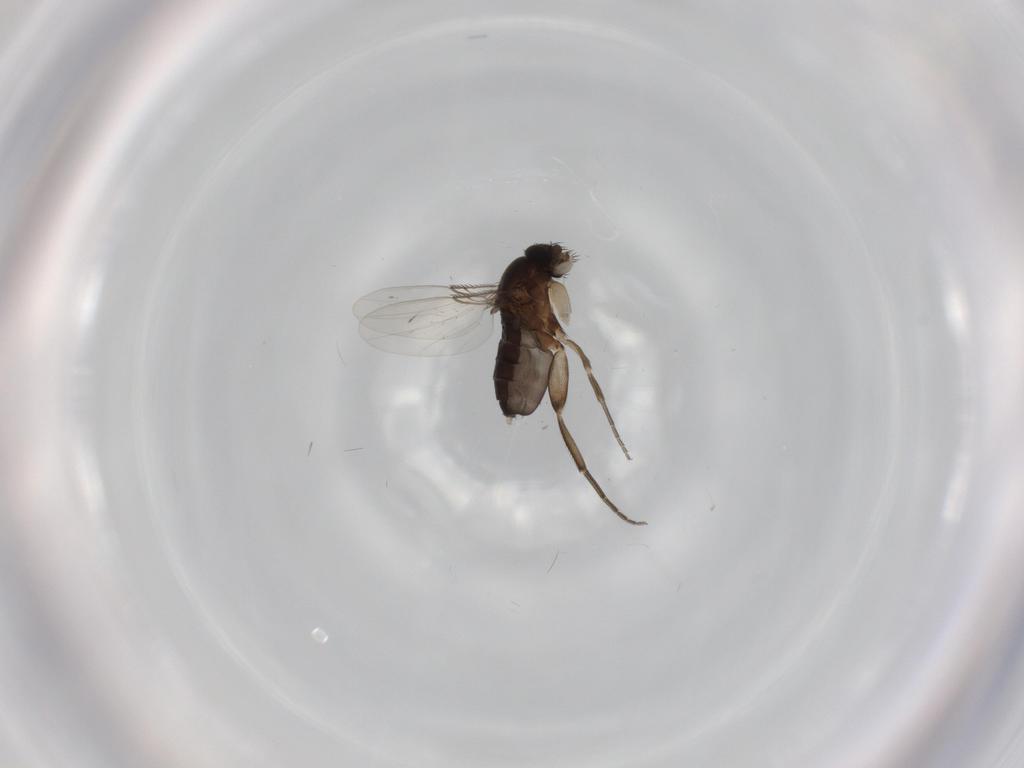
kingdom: Animalia
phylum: Arthropoda
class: Insecta
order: Diptera
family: Phoridae
